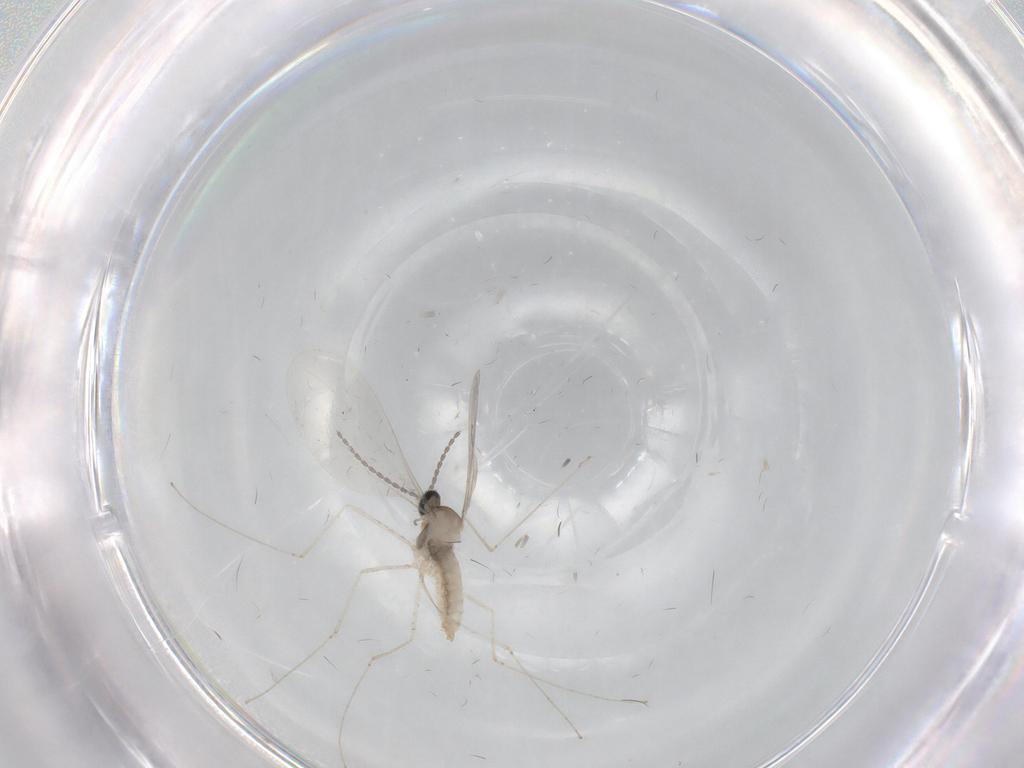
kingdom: Animalia
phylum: Arthropoda
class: Insecta
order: Diptera
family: Cecidomyiidae
